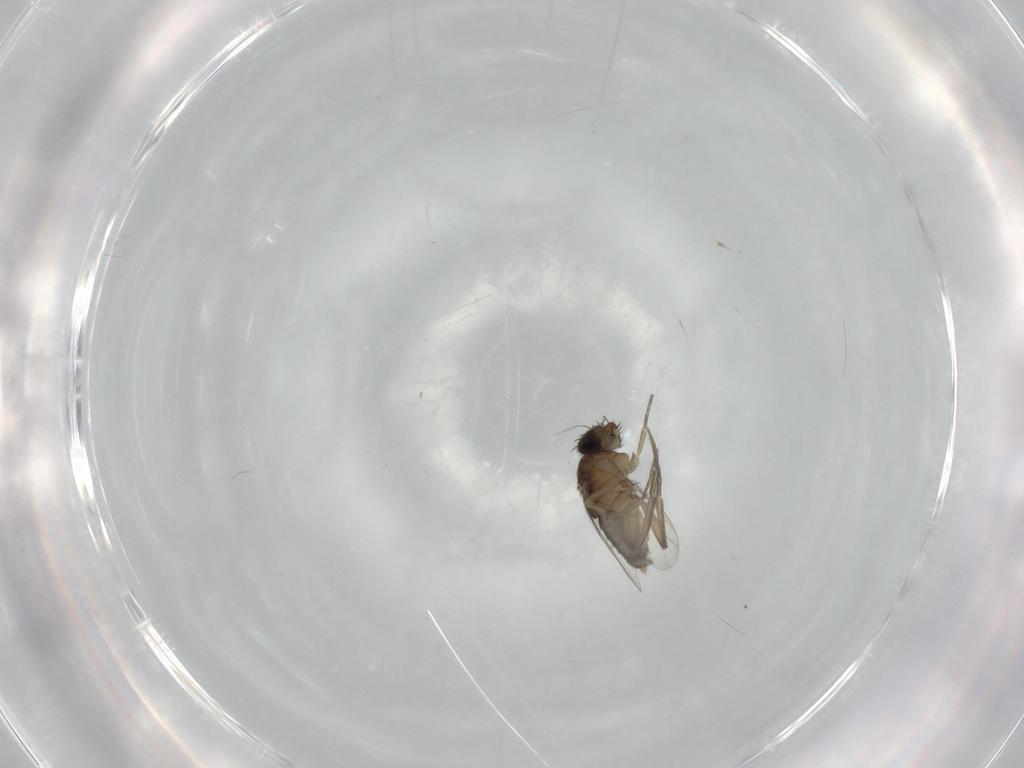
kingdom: Animalia
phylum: Arthropoda
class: Insecta
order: Diptera
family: Phoridae
